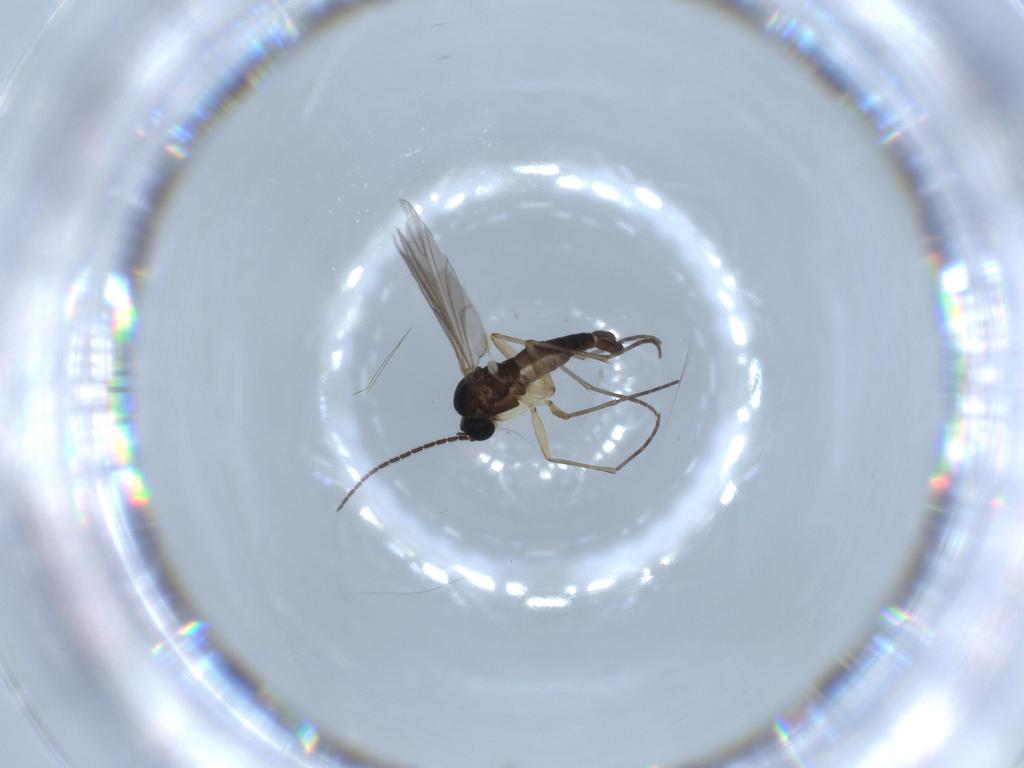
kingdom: Animalia
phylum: Arthropoda
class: Insecta
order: Diptera
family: Sciaridae
